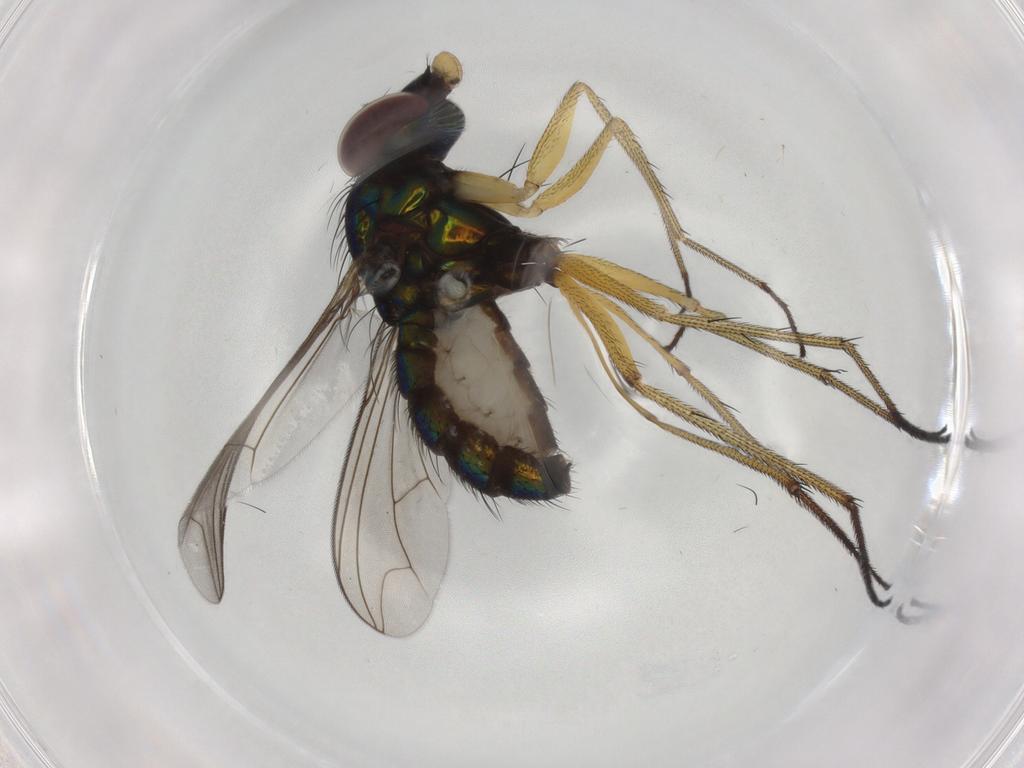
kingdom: Animalia
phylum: Arthropoda
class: Insecta
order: Diptera
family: Dolichopodidae
